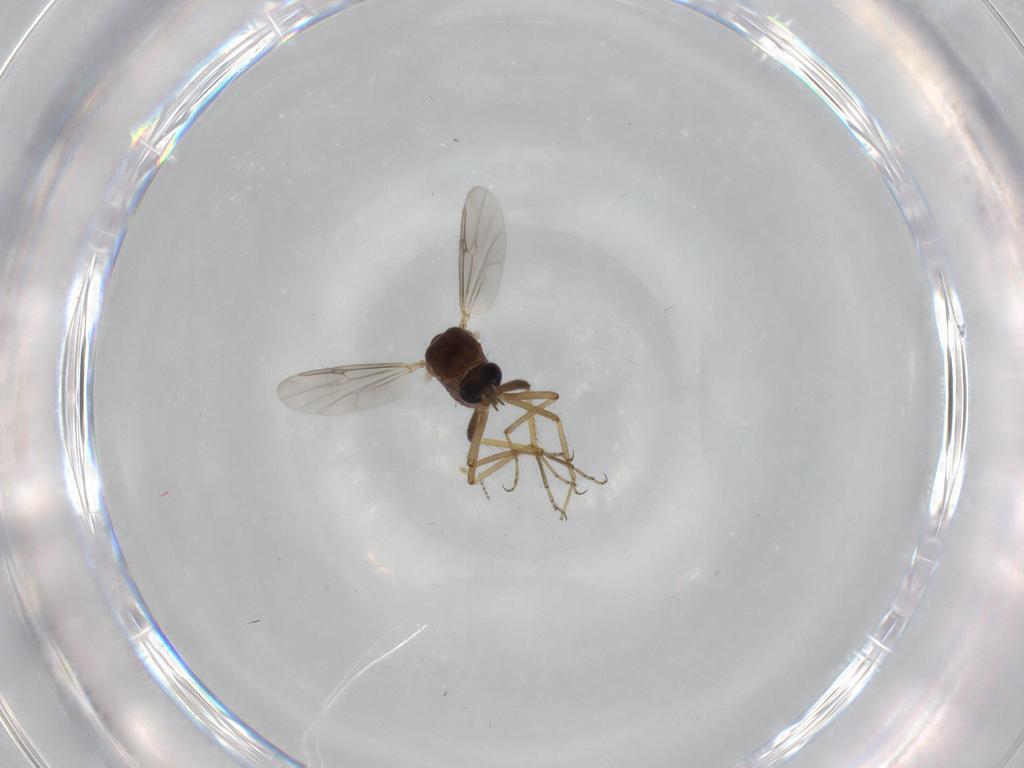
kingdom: Animalia
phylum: Arthropoda
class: Insecta
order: Diptera
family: Ceratopogonidae
